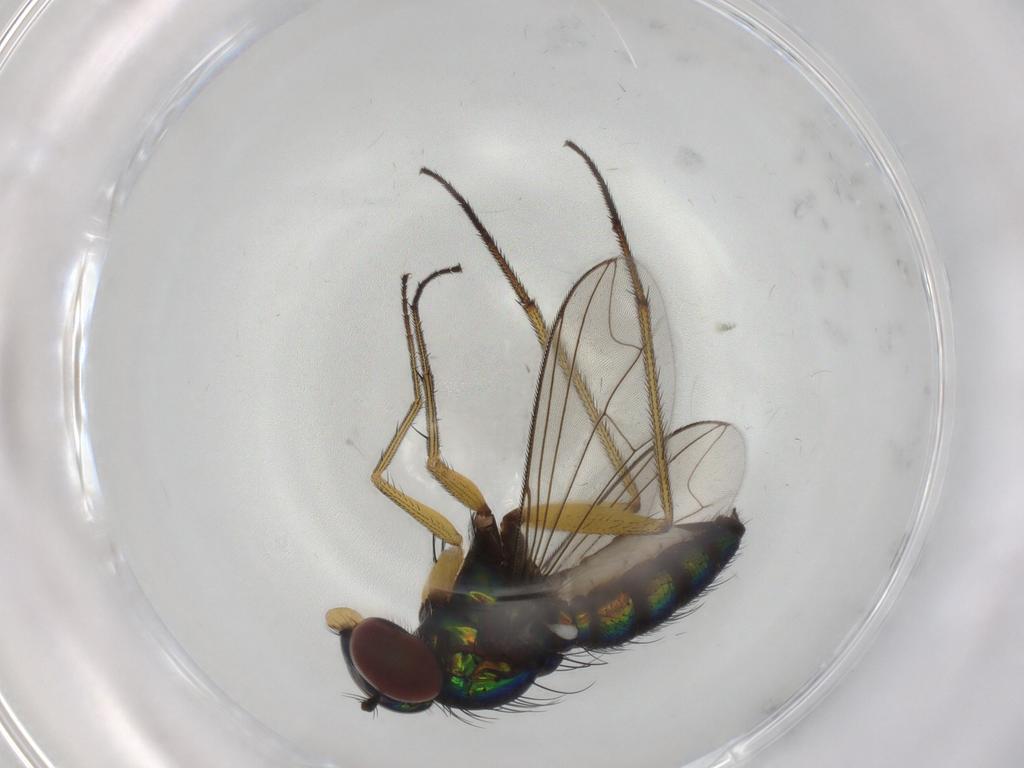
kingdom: Animalia
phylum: Arthropoda
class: Insecta
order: Diptera
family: Dolichopodidae
